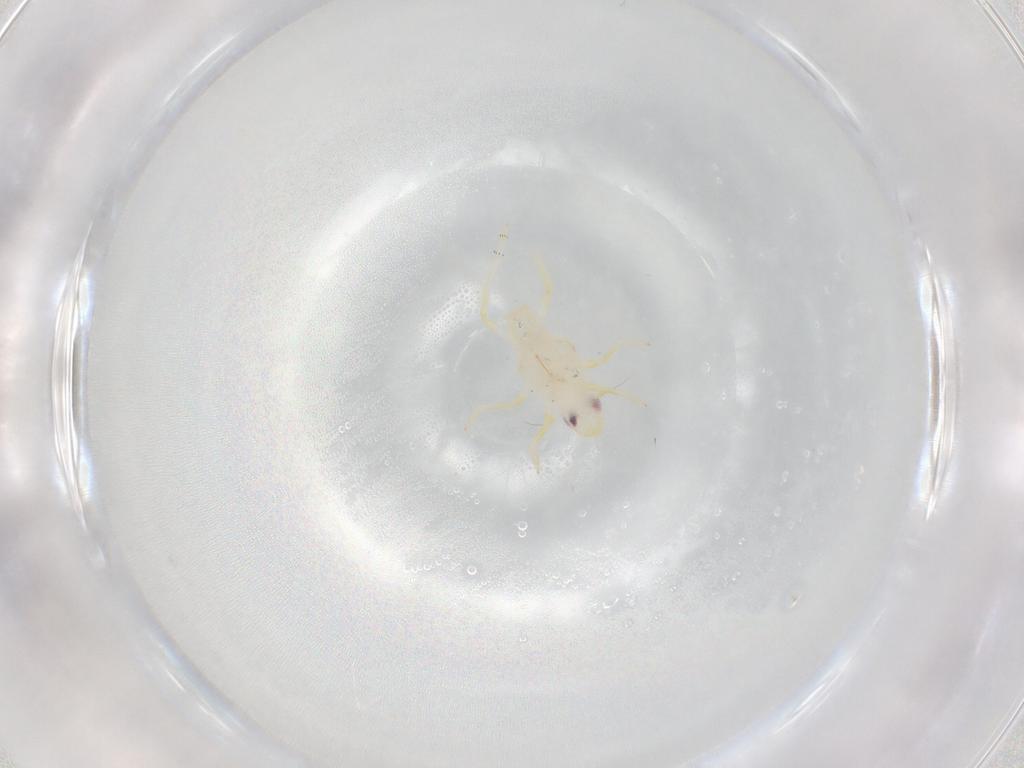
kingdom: Animalia
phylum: Arthropoda
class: Insecta
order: Hemiptera
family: Tropiduchidae
